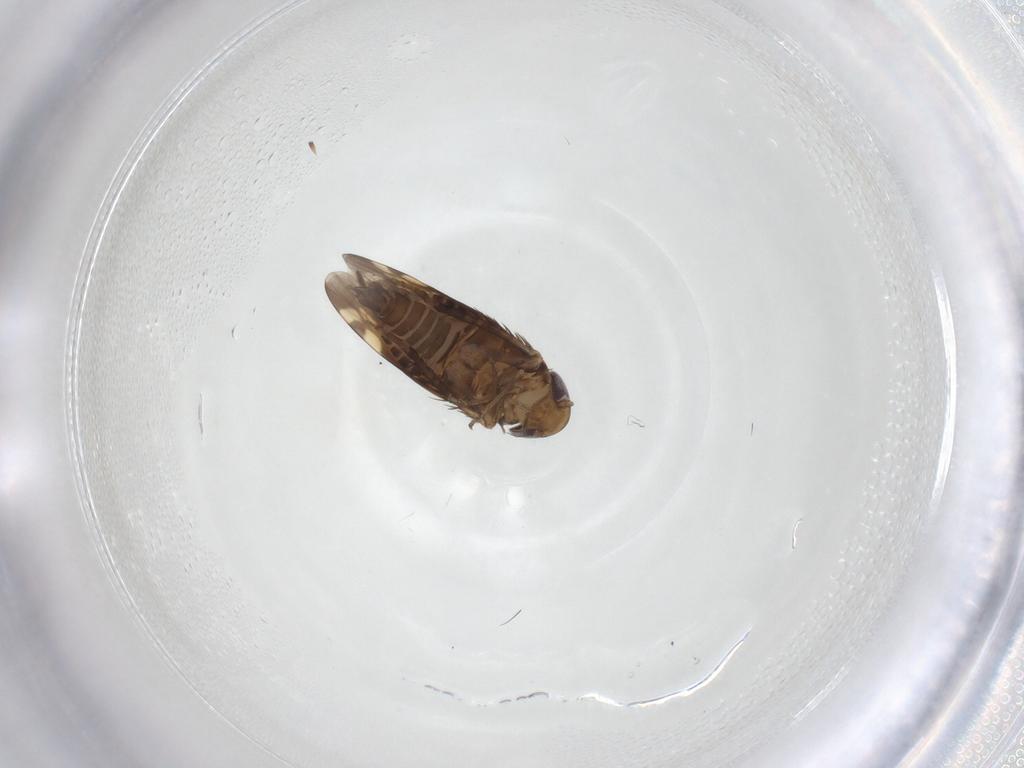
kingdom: Animalia
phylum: Arthropoda
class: Insecta
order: Hemiptera
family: Cicadellidae
